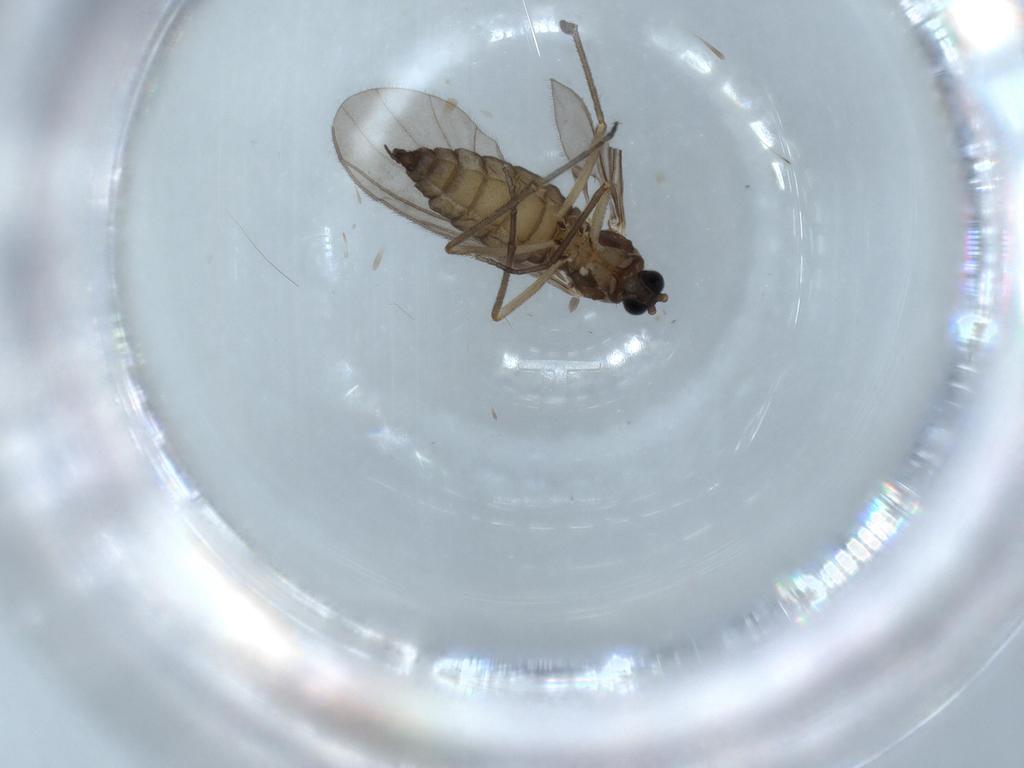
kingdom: Animalia
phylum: Arthropoda
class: Insecta
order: Diptera
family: Sciaridae
